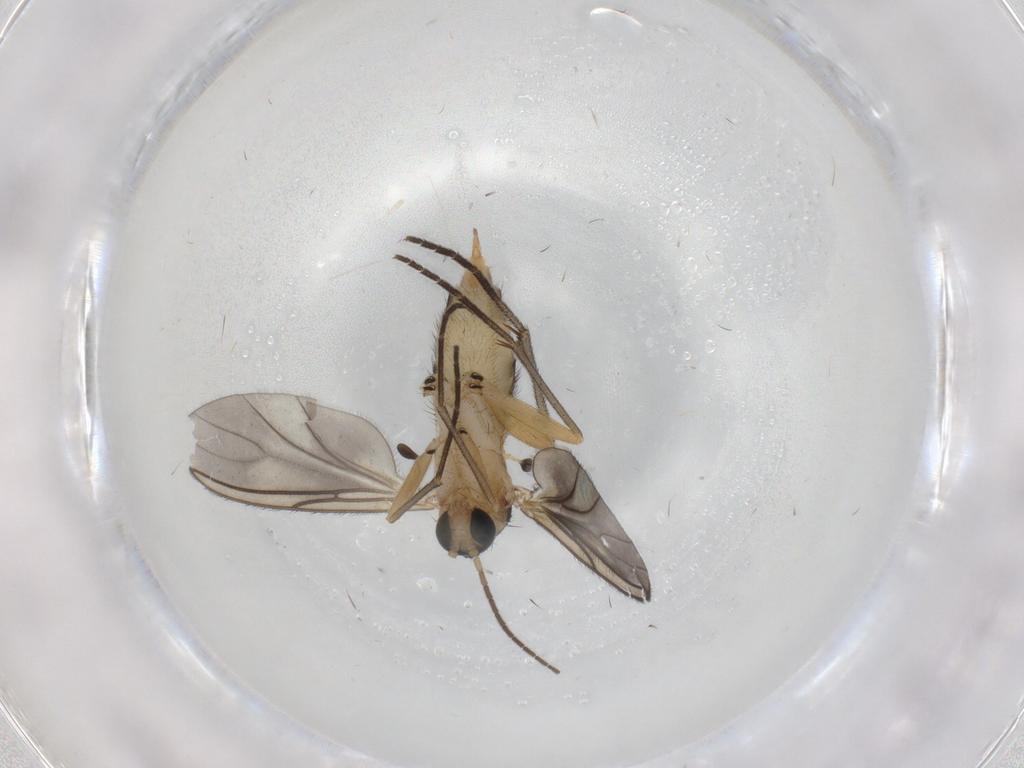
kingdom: Animalia
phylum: Arthropoda
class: Insecta
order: Diptera
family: Sciaridae
